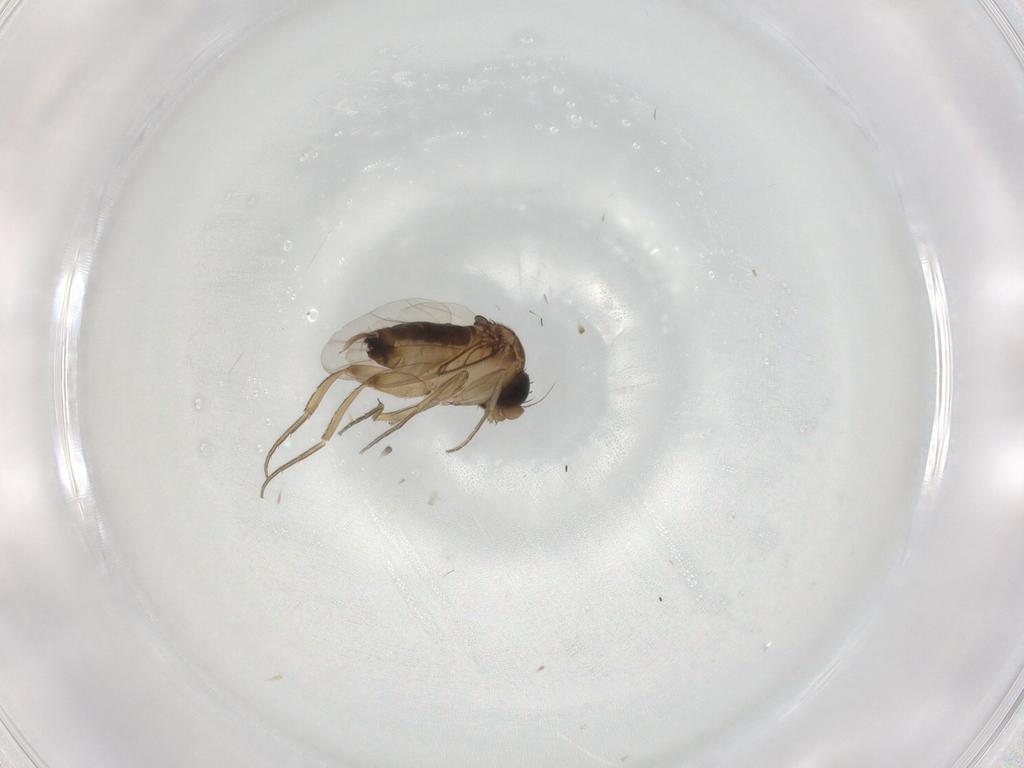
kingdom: Animalia
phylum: Arthropoda
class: Insecta
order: Diptera
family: Phoridae
